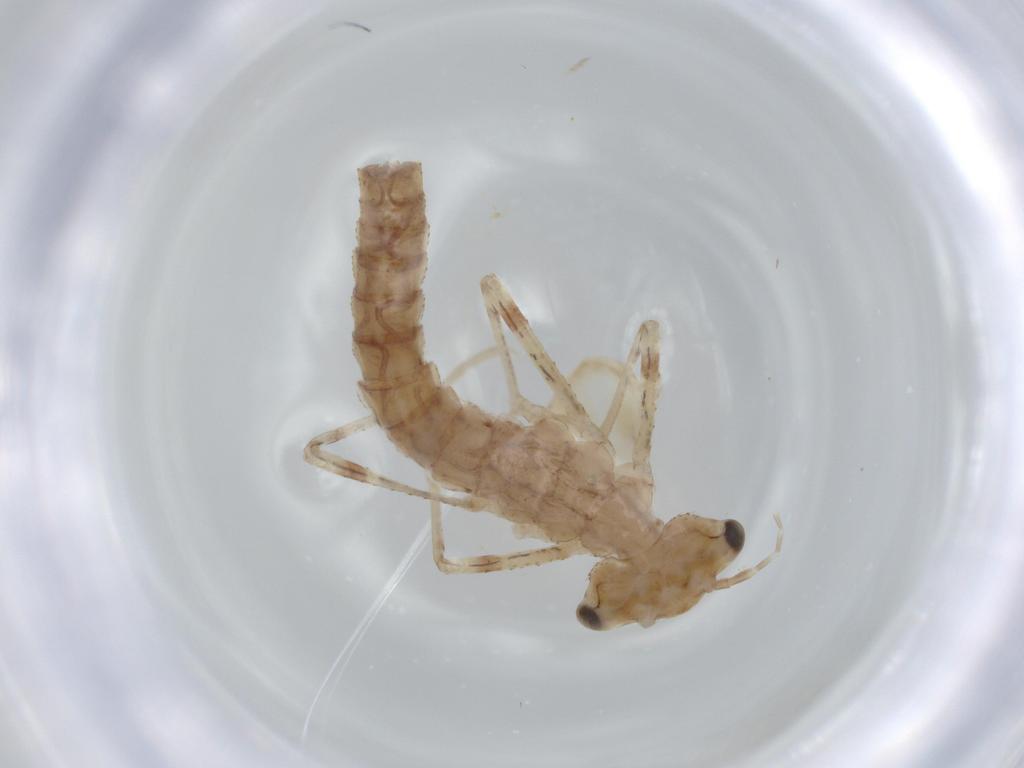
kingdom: Animalia
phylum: Arthropoda
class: Insecta
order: Odonata
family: Coenagrionidae
